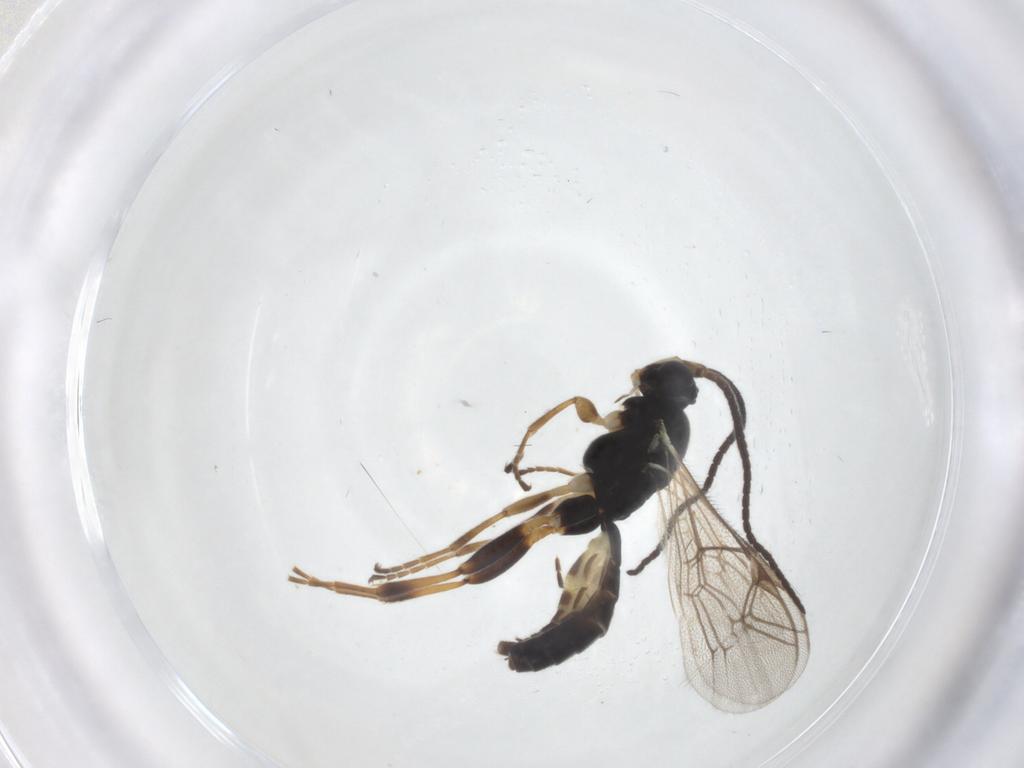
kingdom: Animalia
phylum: Arthropoda
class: Insecta
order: Hymenoptera
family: Ichneumonidae
